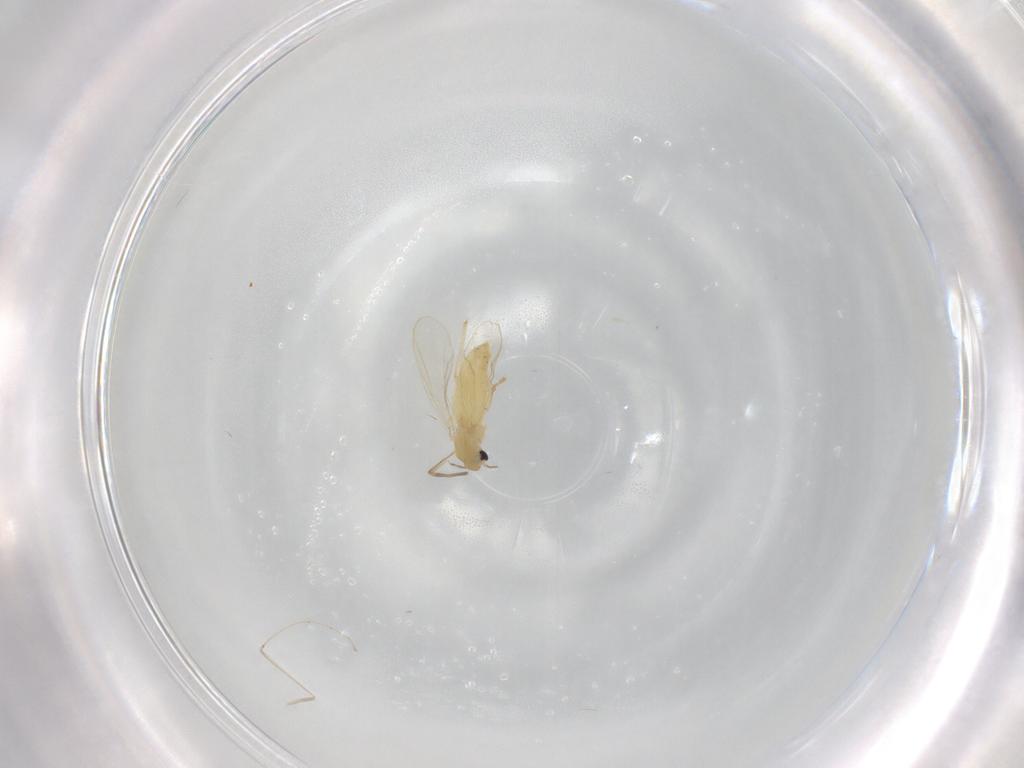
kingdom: Animalia
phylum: Arthropoda
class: Insecta
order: Diptera
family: Chironomidae
